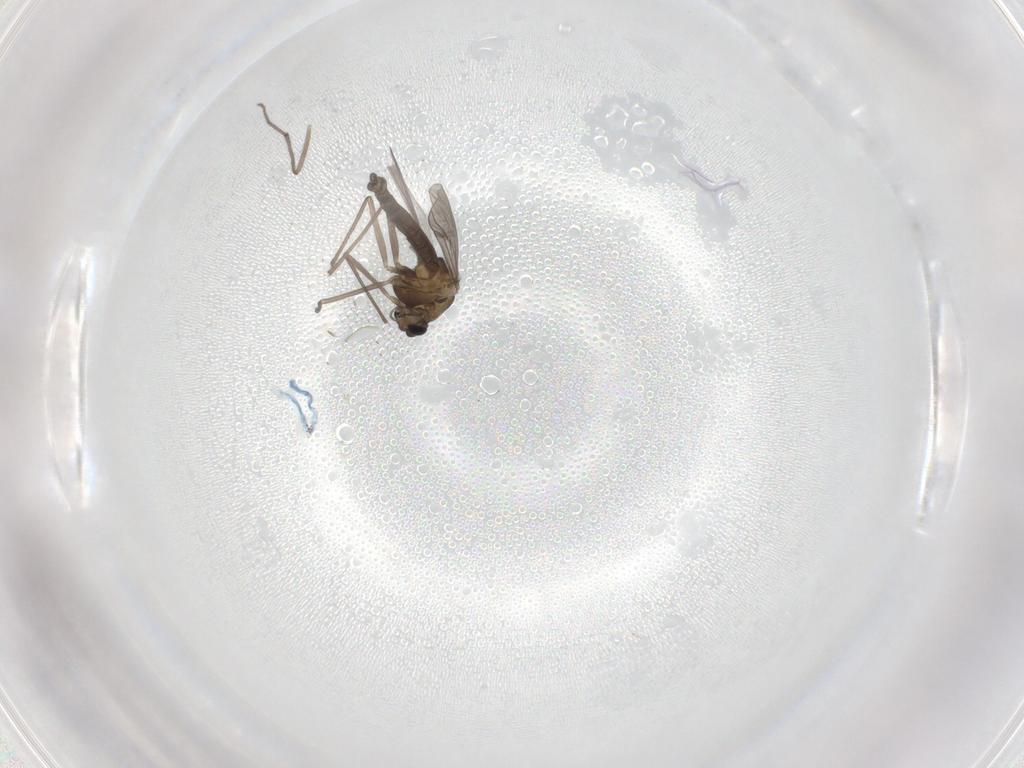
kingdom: Animalia
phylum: Arthropoda
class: Insecta
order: Diptera
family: Chironomidae
